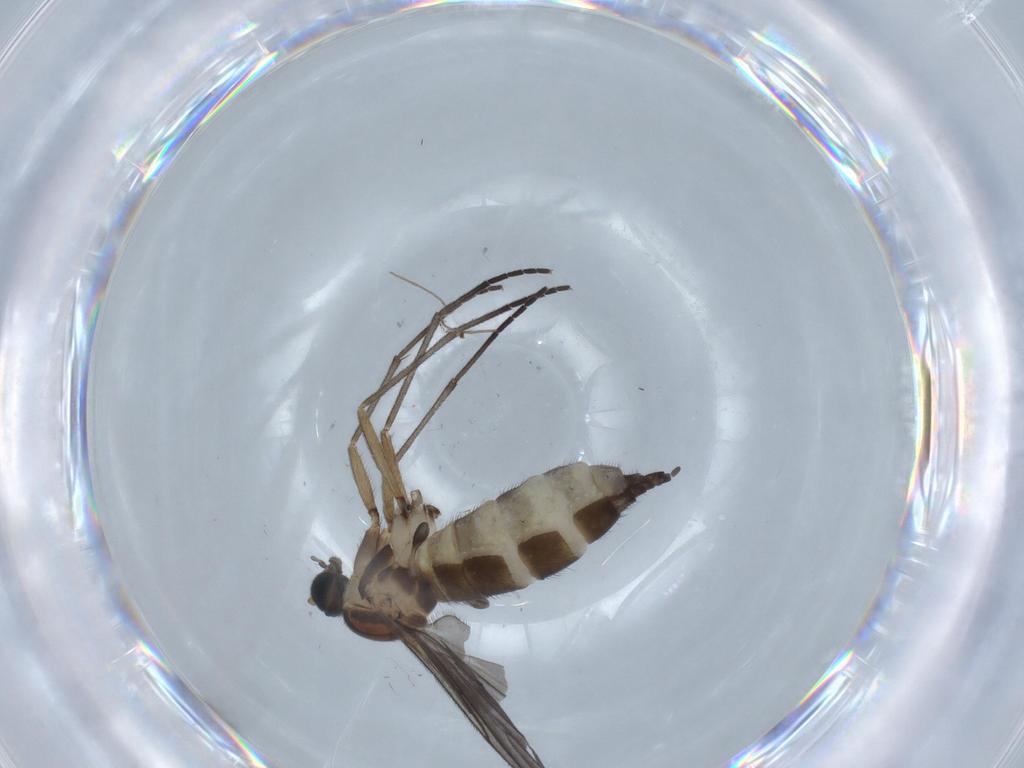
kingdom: Animalia
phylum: Arthropoda
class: Insecta
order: Diptera
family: Sciaridae
